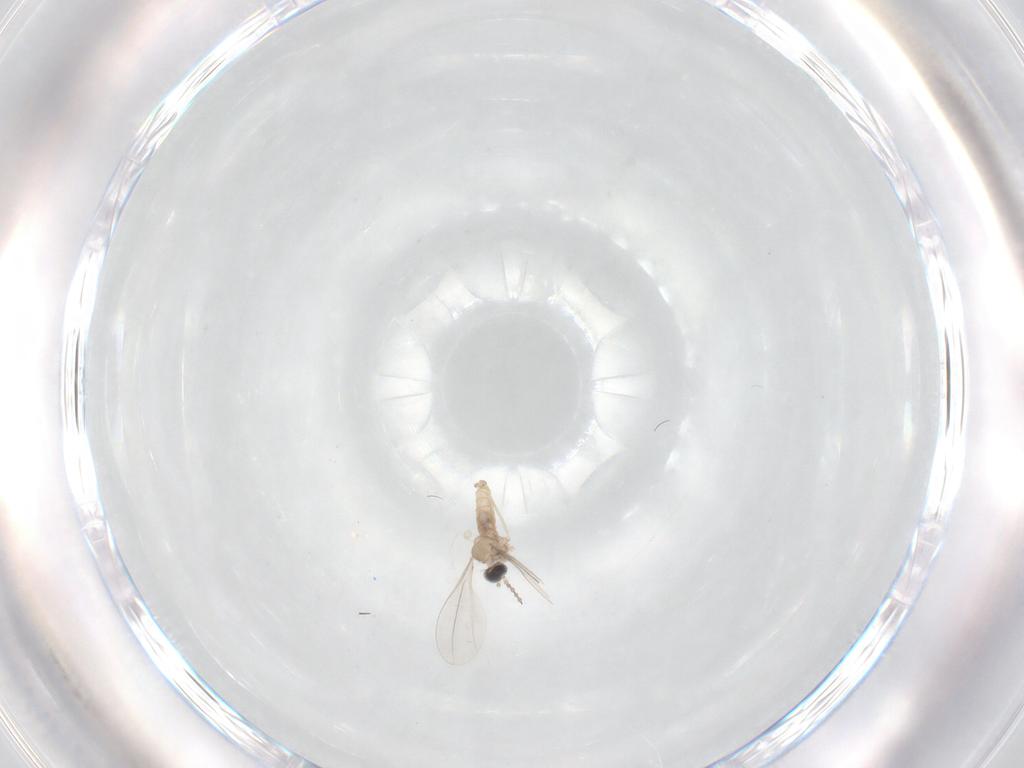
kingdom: Animalia
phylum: Arthropoda
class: Insecta
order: Diptera
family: Cecidomyiidae
